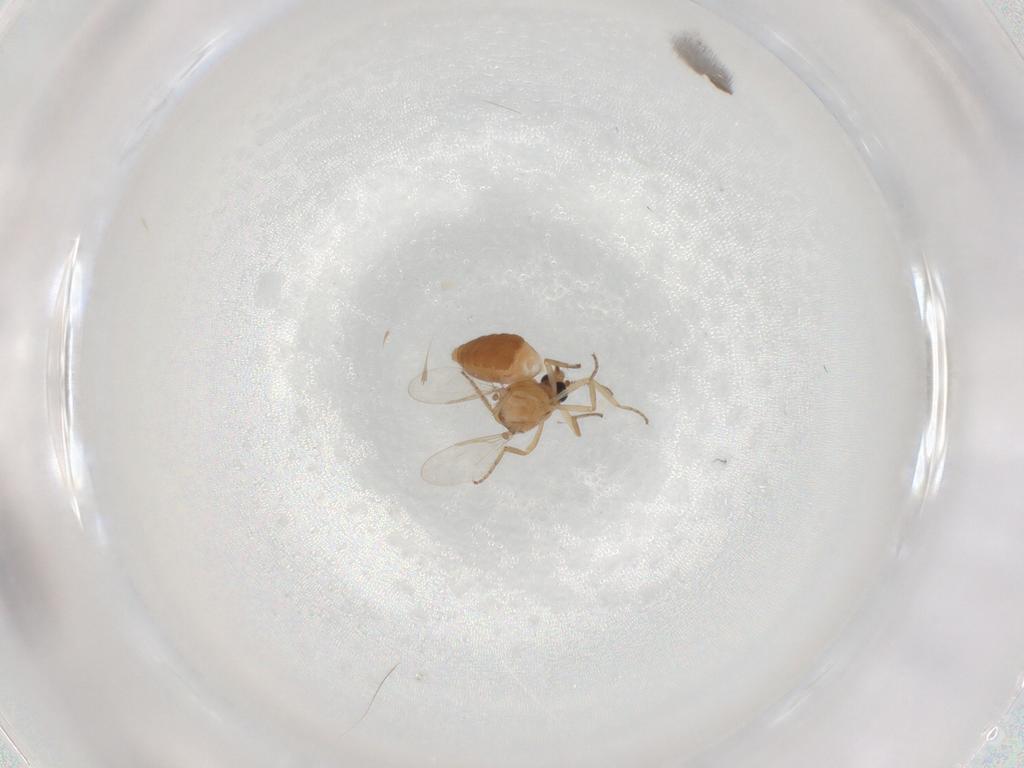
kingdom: Animalia
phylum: Arthropoda
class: Insecta
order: Diptera
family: Ceratopogonidae
